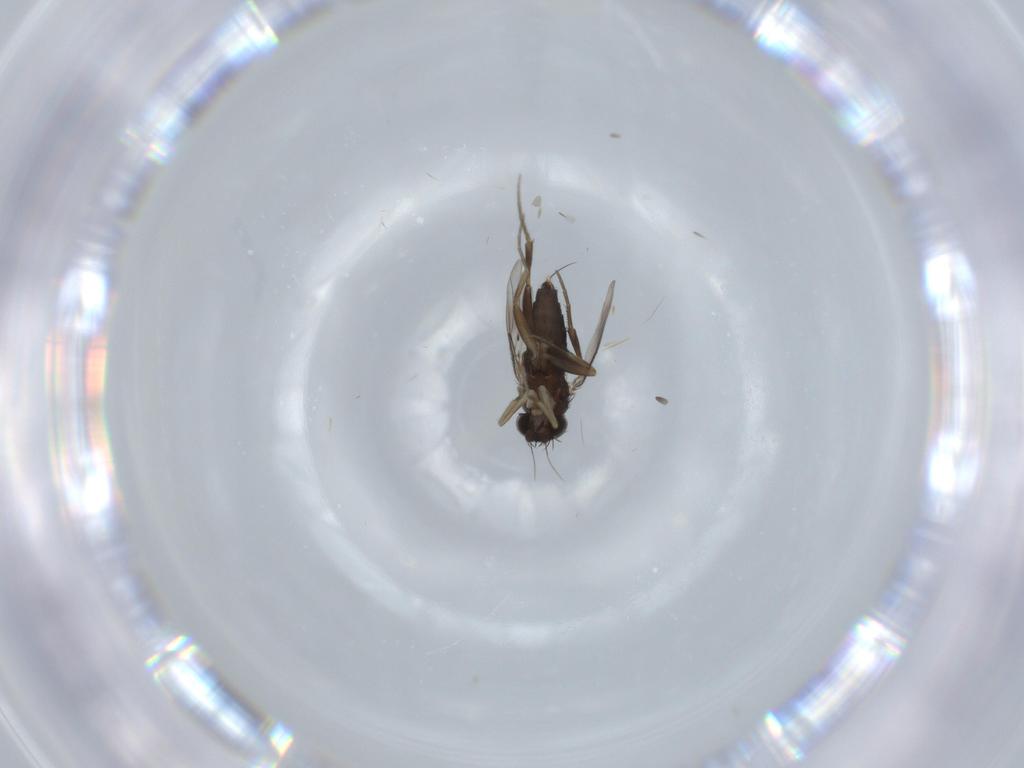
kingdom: Animalia
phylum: Arthropoda
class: Insecta
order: Diptera
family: Phoridae
